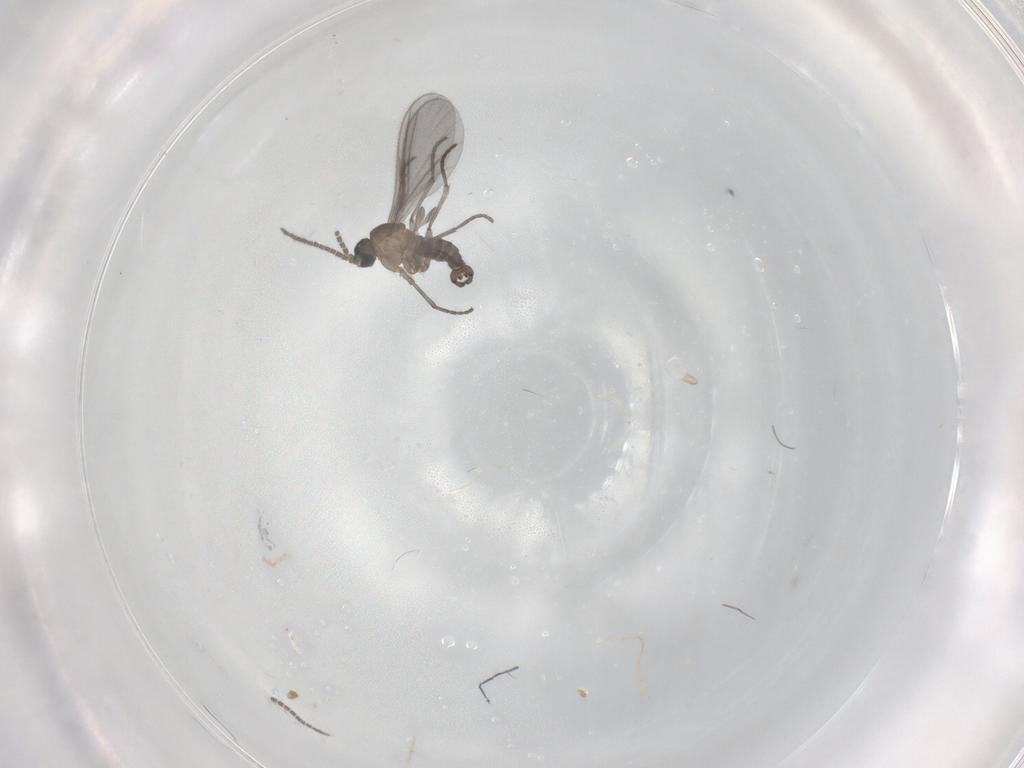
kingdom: Animalia
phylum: Arthropoda
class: Insecta
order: Diptera
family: Sciaridae
